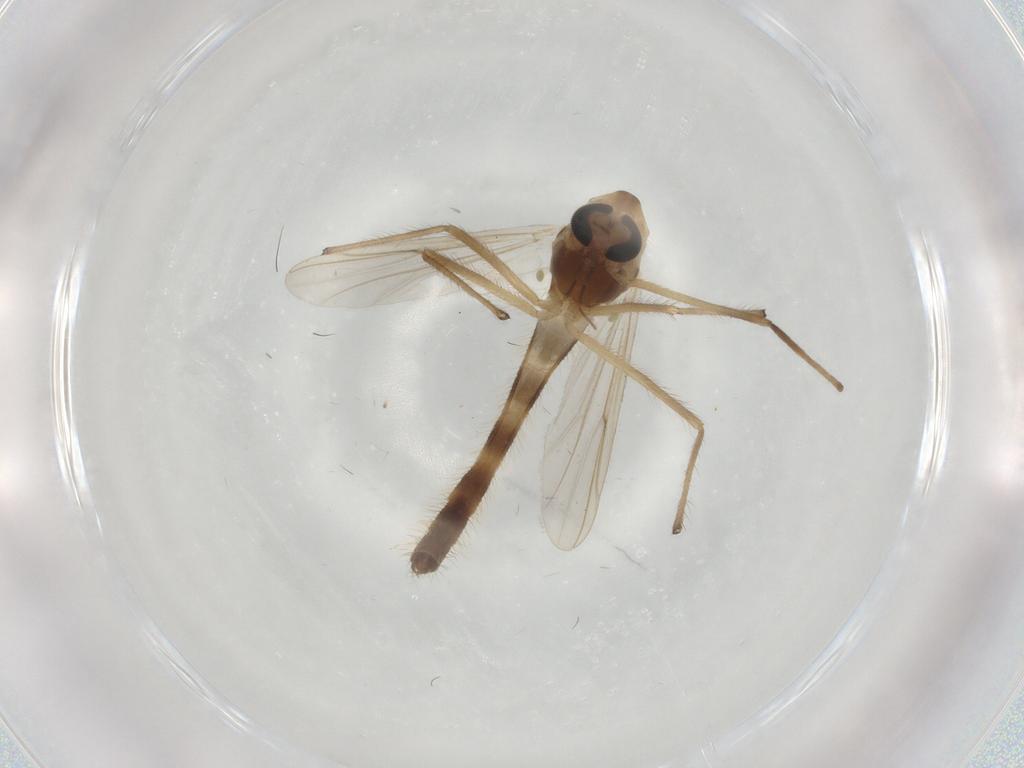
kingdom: Animalia
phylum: Arthropoda
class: Insecta
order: Diptera
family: Chironomidae
